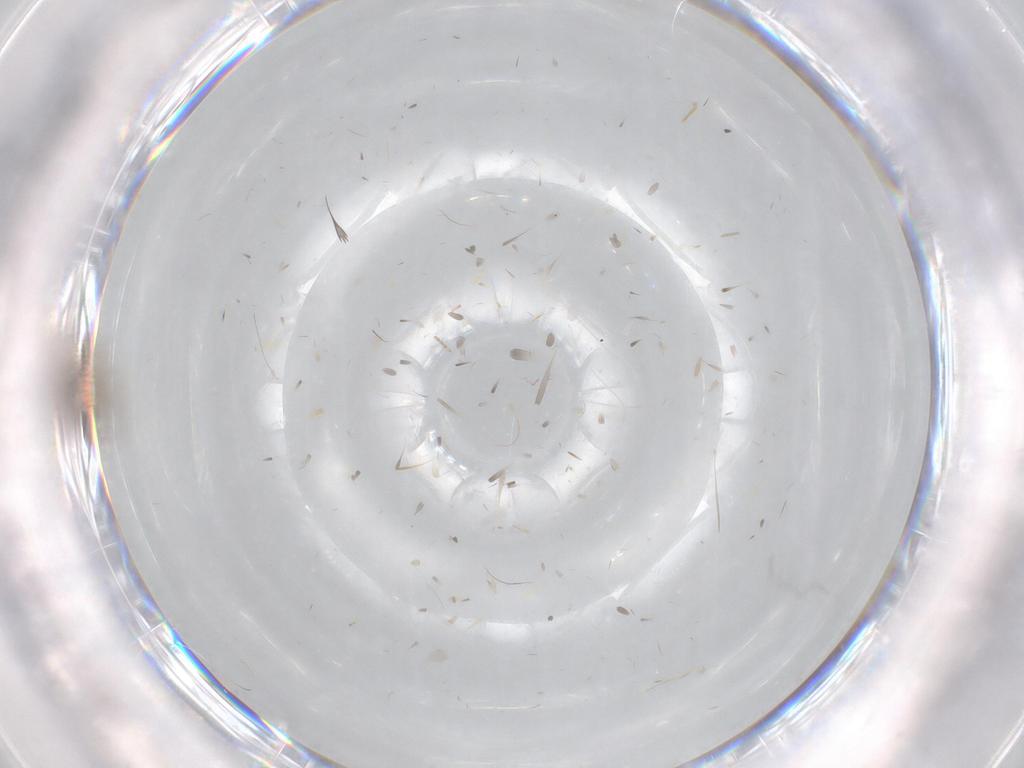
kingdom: Animalia
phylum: Arthropoda
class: Insecta
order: Diptera
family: Cecidomyiidae
